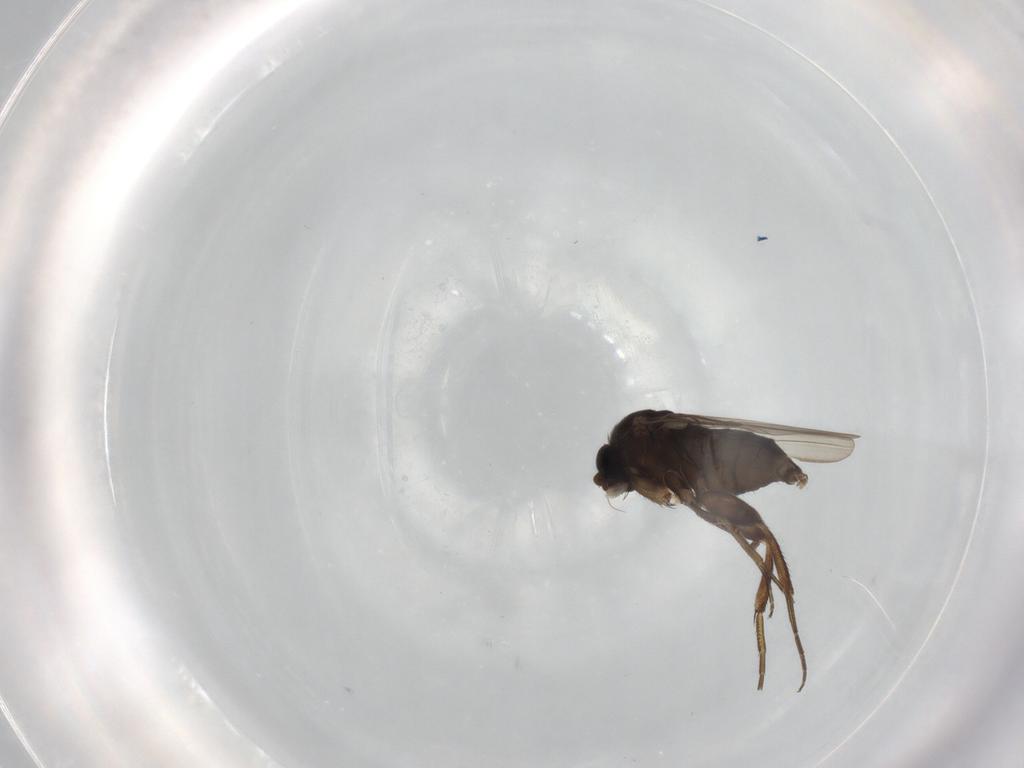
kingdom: Animalia
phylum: Arthropoda
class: Insecta
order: Diptera
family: Phoridae
